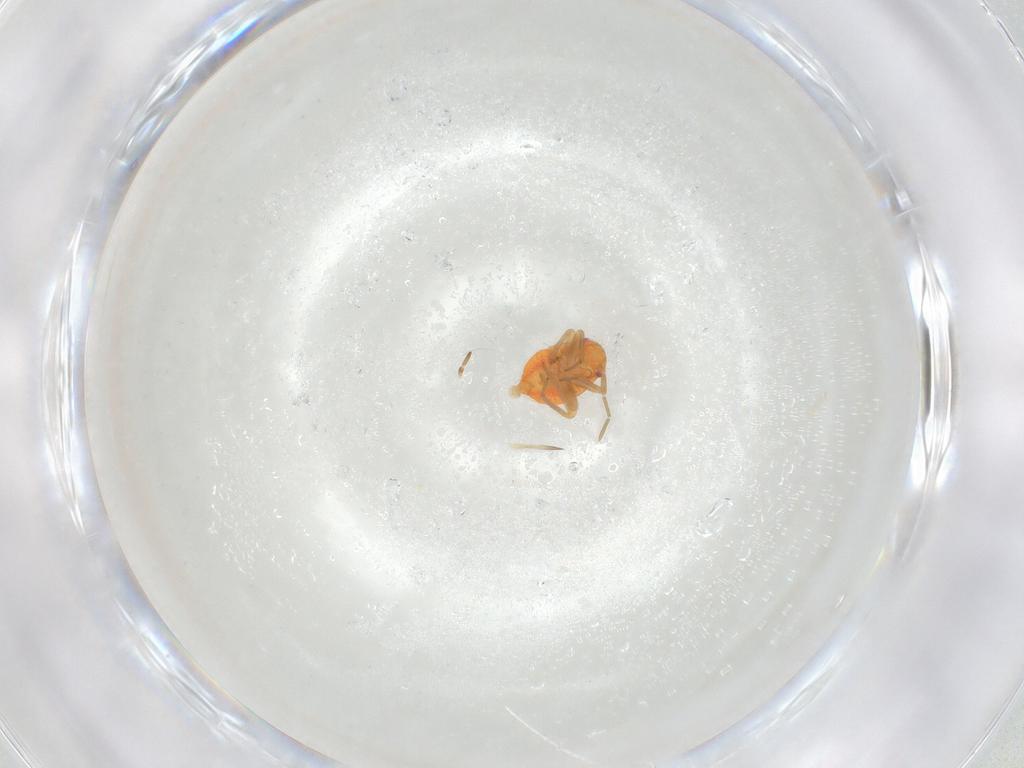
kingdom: Animalia
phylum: Arthropoda
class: Insecta
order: Hemiptera
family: Miridae
